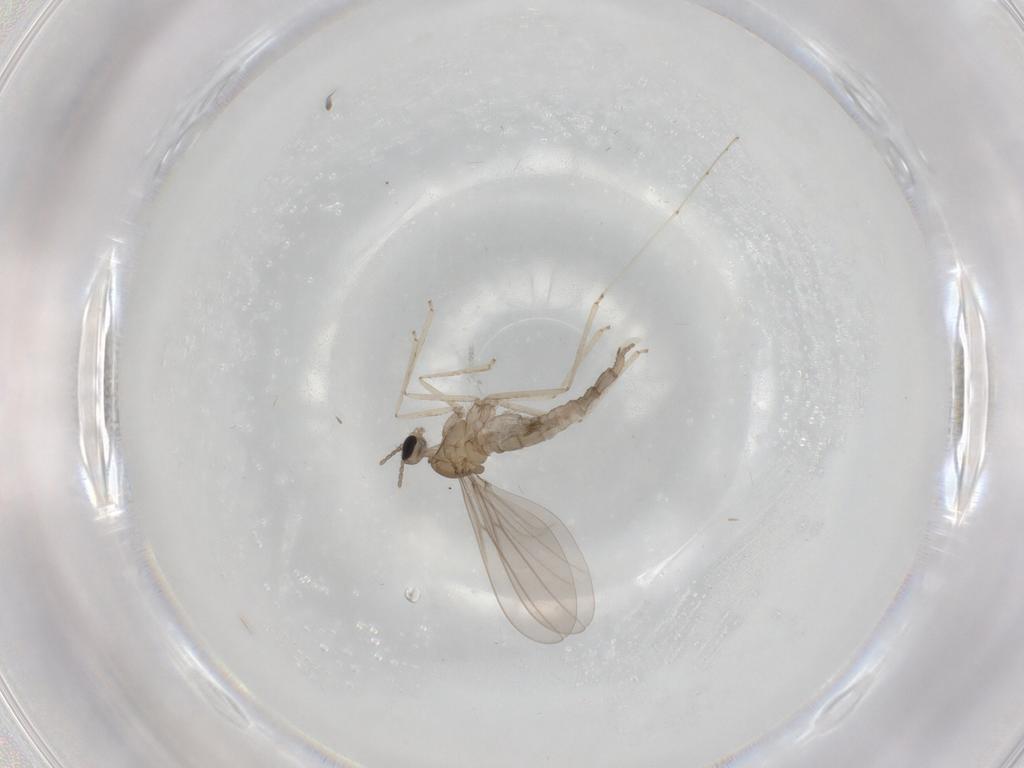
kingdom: Animalia
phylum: Arthropoda
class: Insecta
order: Diptera
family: Cecidomyiidae
